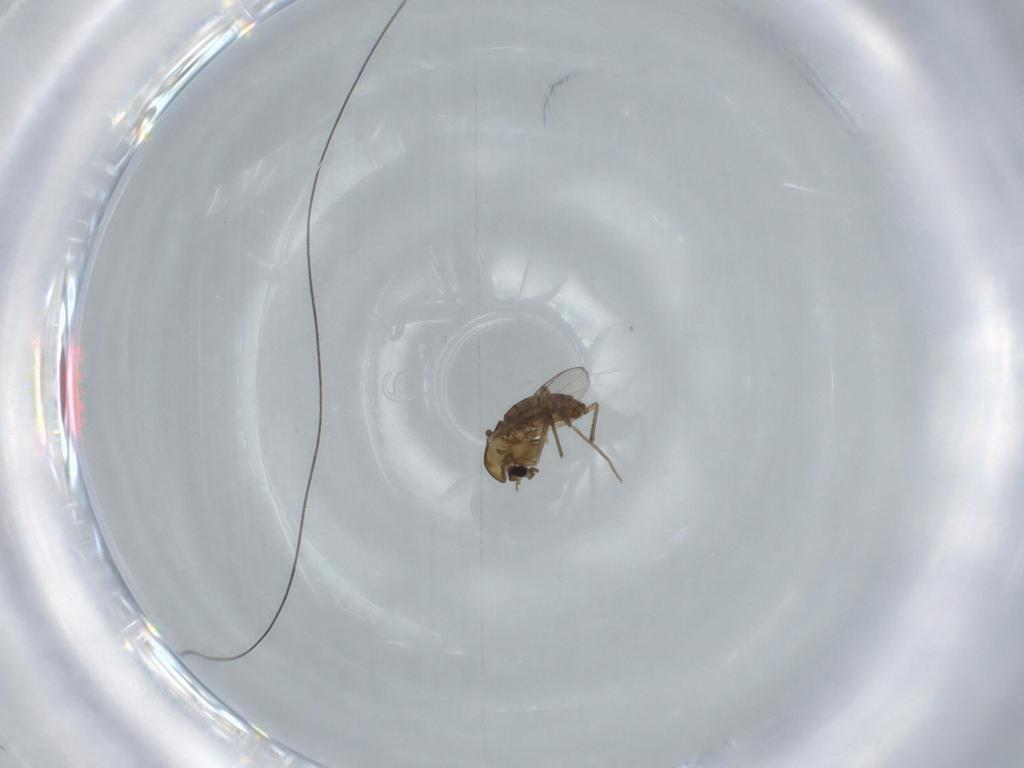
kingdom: Animalia
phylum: Arthropoda
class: Insecta
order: Diptera
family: Chironomidae
